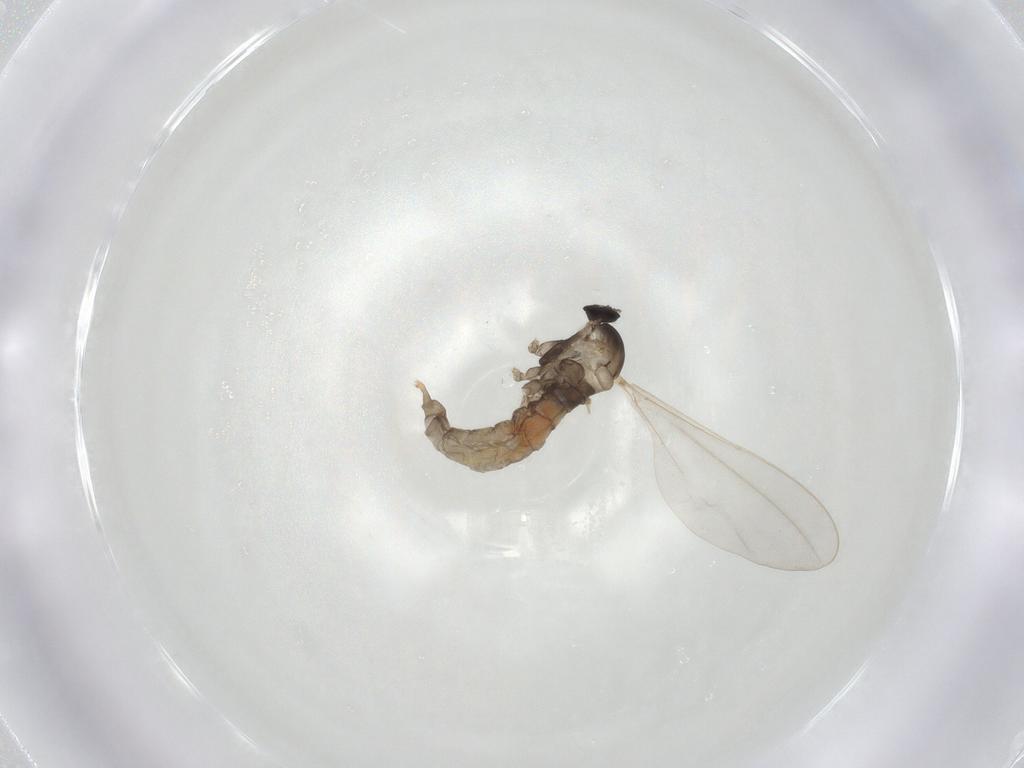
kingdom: Animalia
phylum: Arthropoda
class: Insecta
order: Diptera
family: Cecidomyiidae
